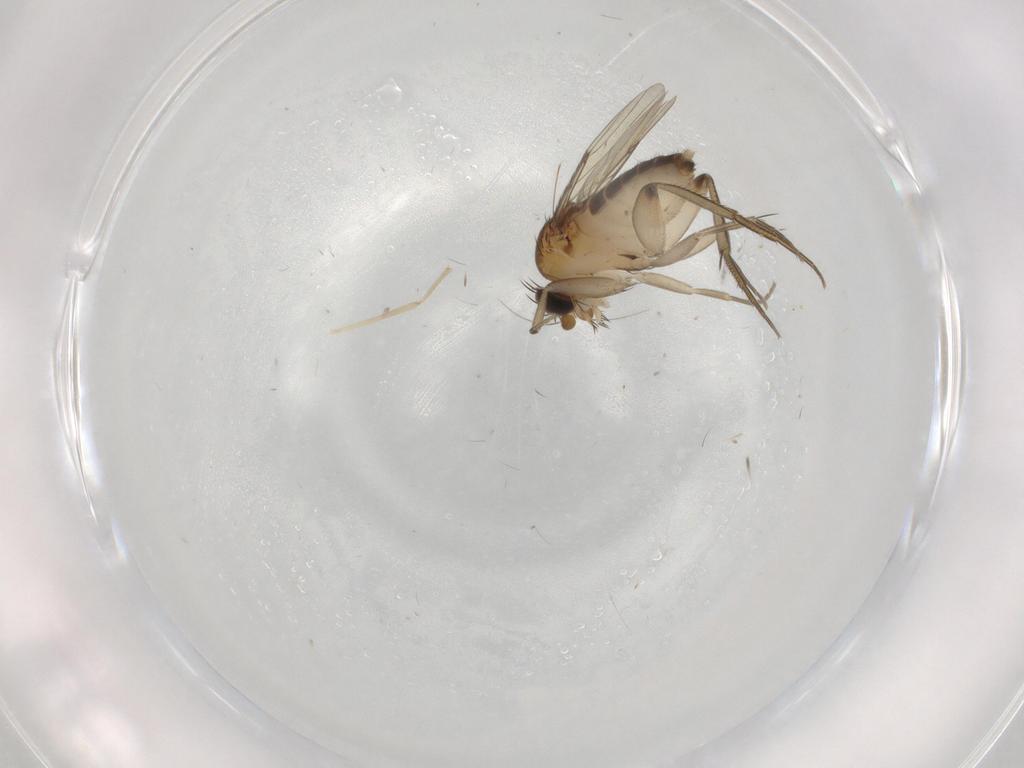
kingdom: Animalia
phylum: Arthropoda
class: Insecta
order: Diptera
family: Phoridae
